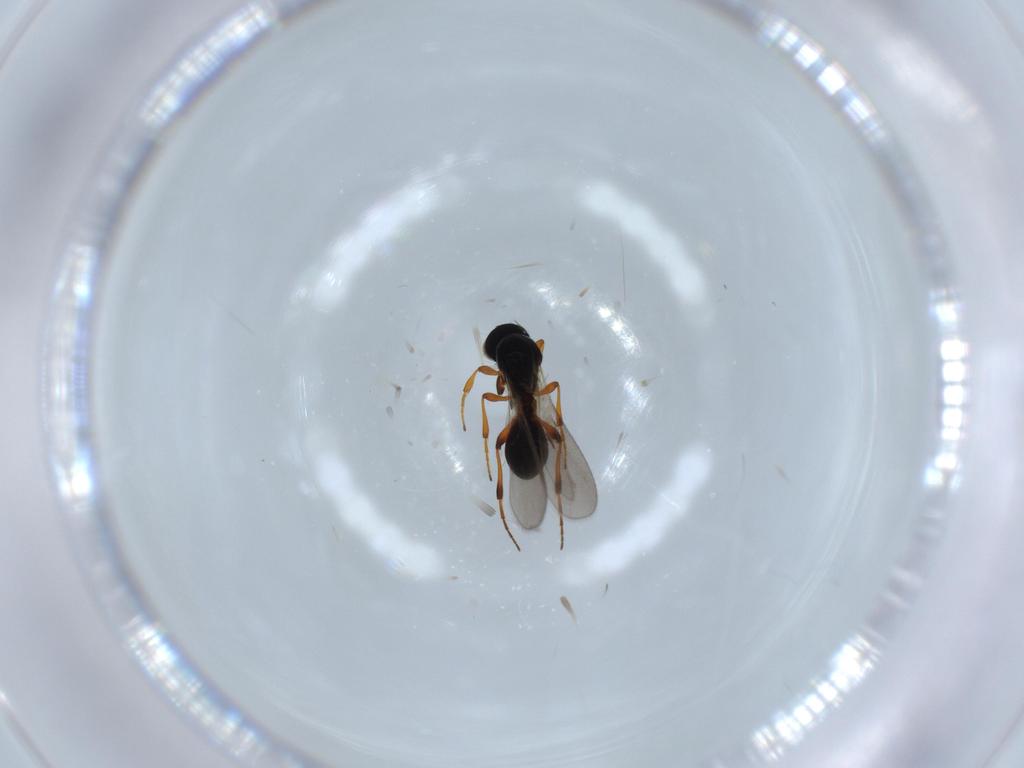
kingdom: Animalia
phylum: Arthropoda
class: Insecta
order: Hymenoptera
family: Platygastridae
